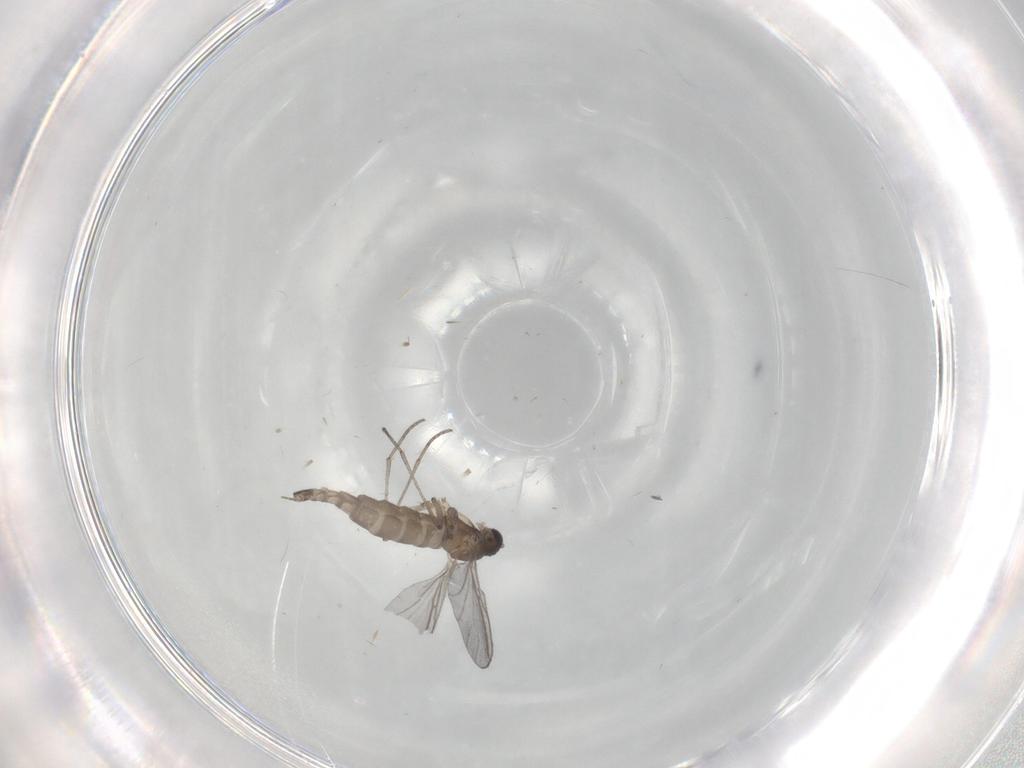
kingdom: Animalia
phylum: Arthropoda
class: Insecta
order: Diptera
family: Sciaridae
